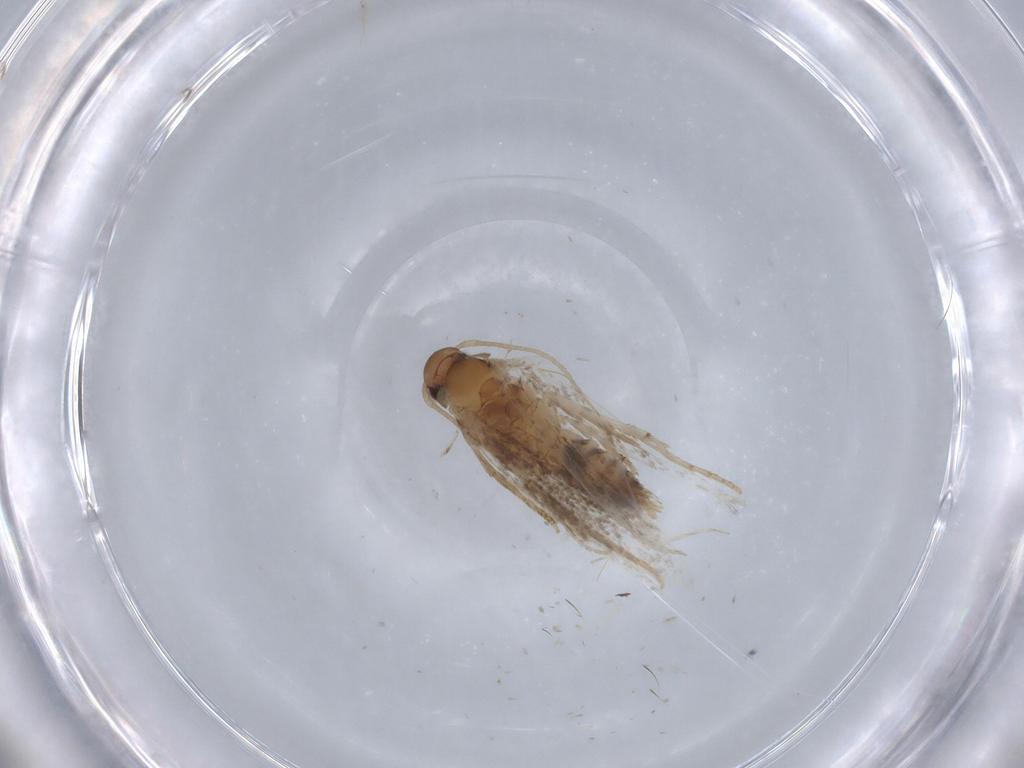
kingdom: Animalia
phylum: Arthropoda
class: Insecta
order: Lepidoptera
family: Elachistidae
